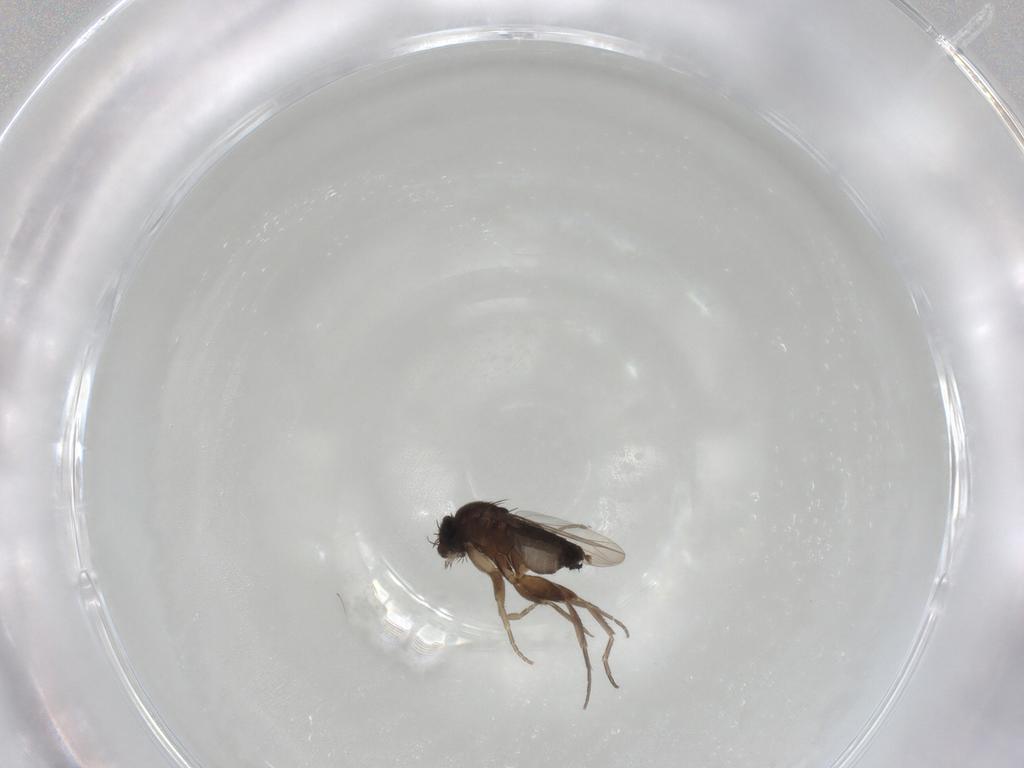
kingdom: Animalia
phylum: Arthropoda
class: Insecta
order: Diptera
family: Phoridae
